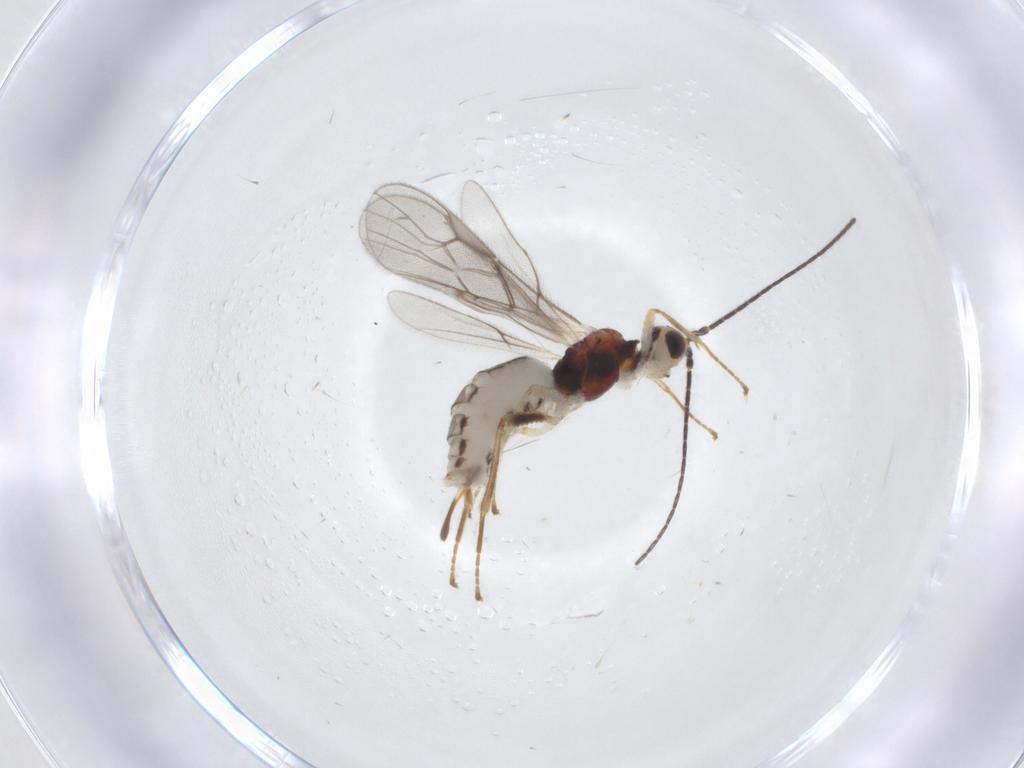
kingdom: Animalia
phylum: Arthropoda
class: Insecta
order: Hymenoptera
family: Braconidae
